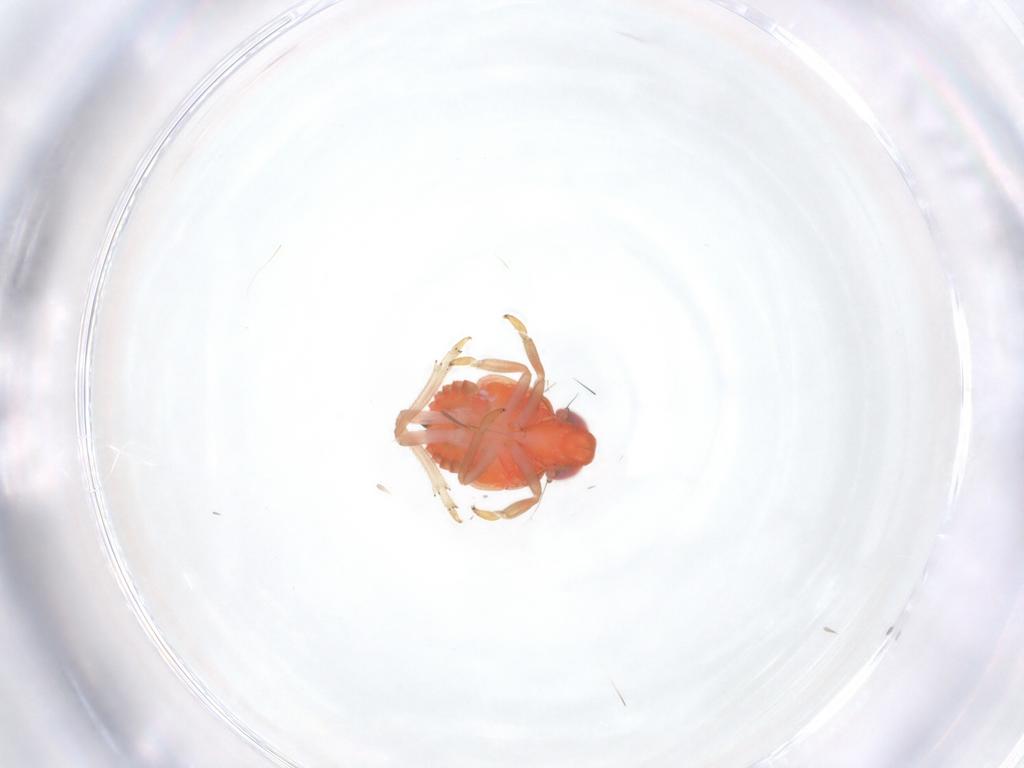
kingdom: Animalia
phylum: Arthropoda
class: Insecta
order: Hemiptera
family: Issidae
